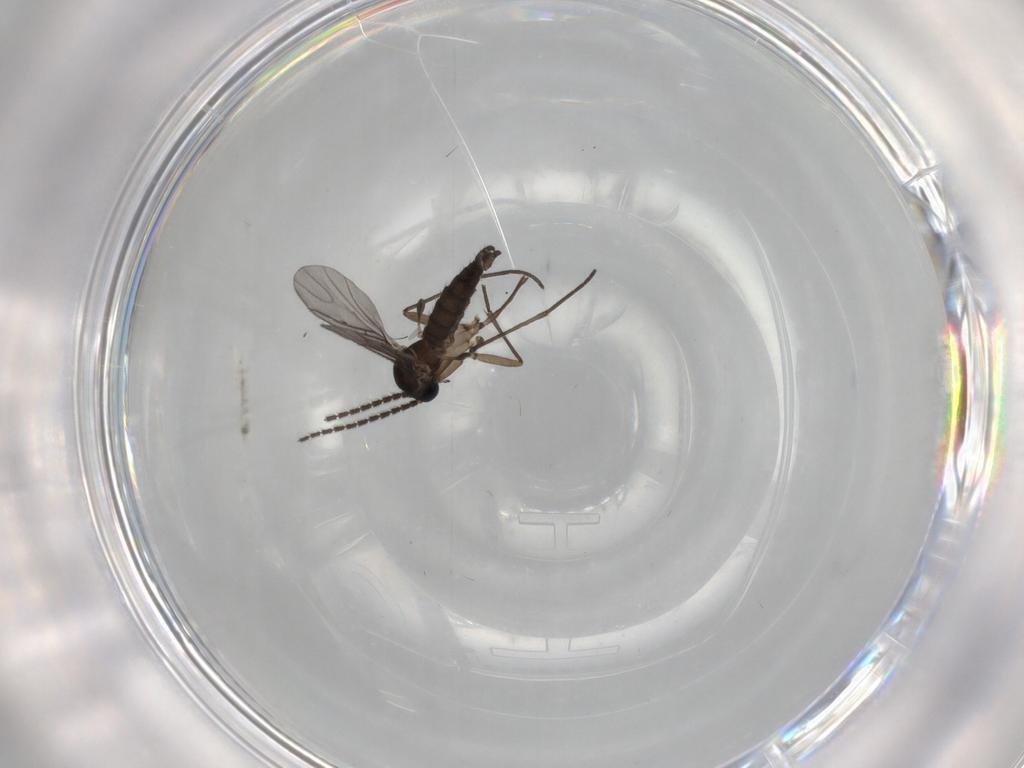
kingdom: Animalia
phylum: Arthropoda
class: Insecta
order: Diptera
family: Sciaridae
